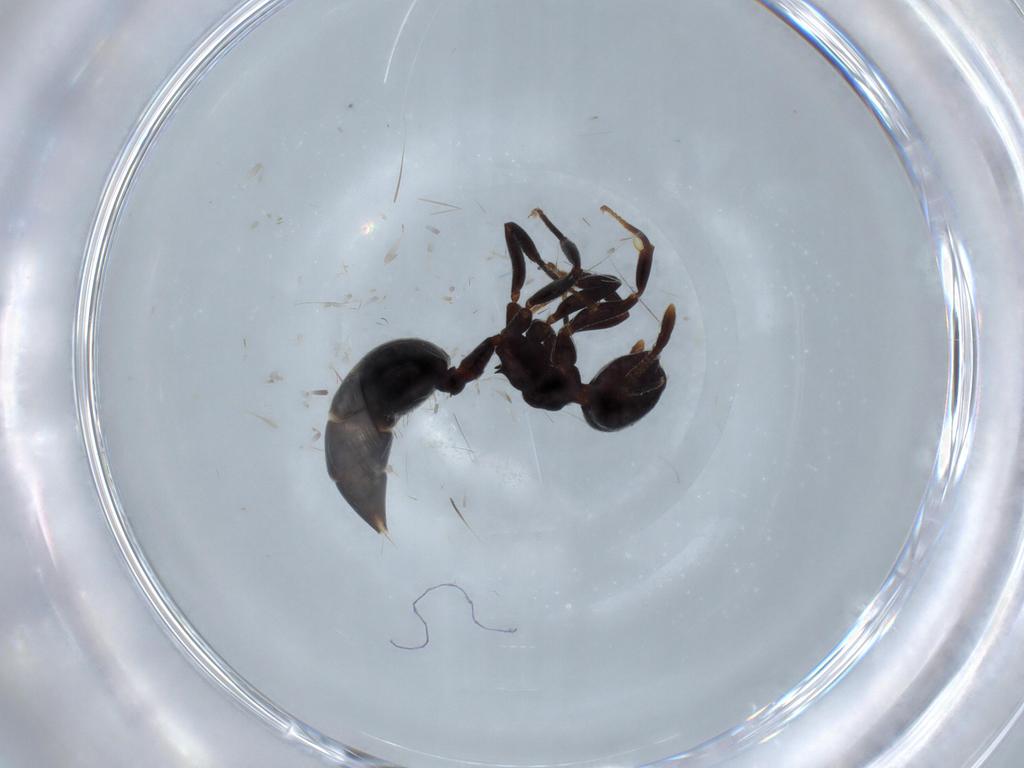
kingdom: Animalia
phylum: Arthropoda
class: Insecta
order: Hymenoptera
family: Formicidae
